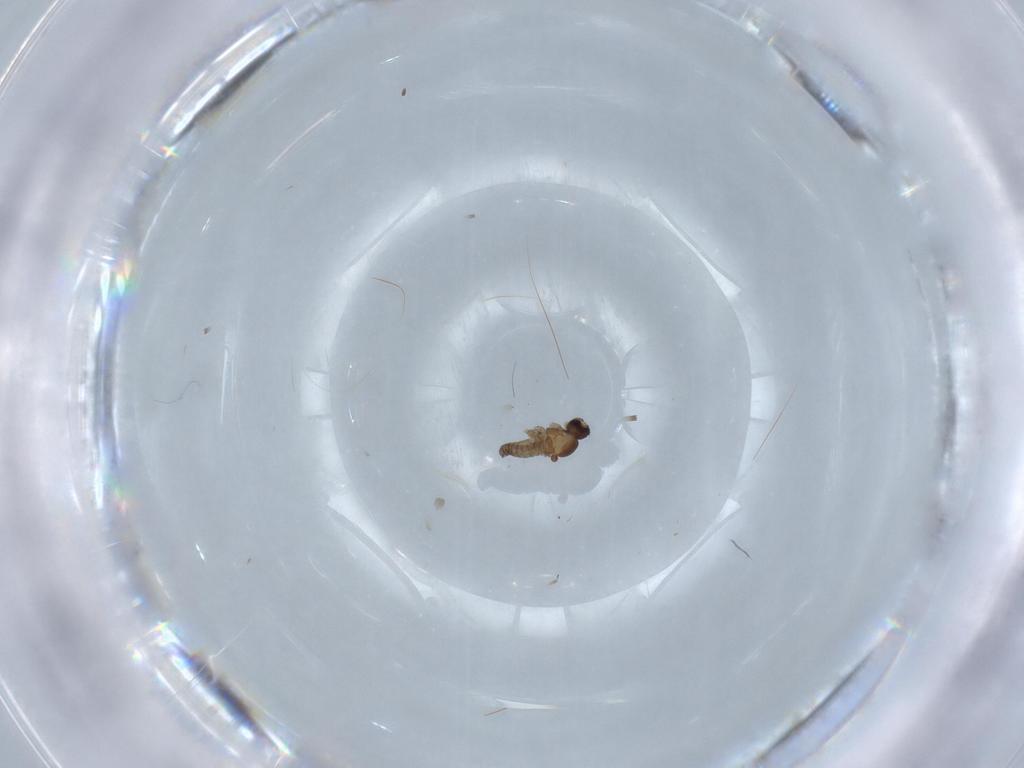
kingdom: Animalia
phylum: Arthropoda
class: Insecta
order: Diptera
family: Cecidomyiidae
